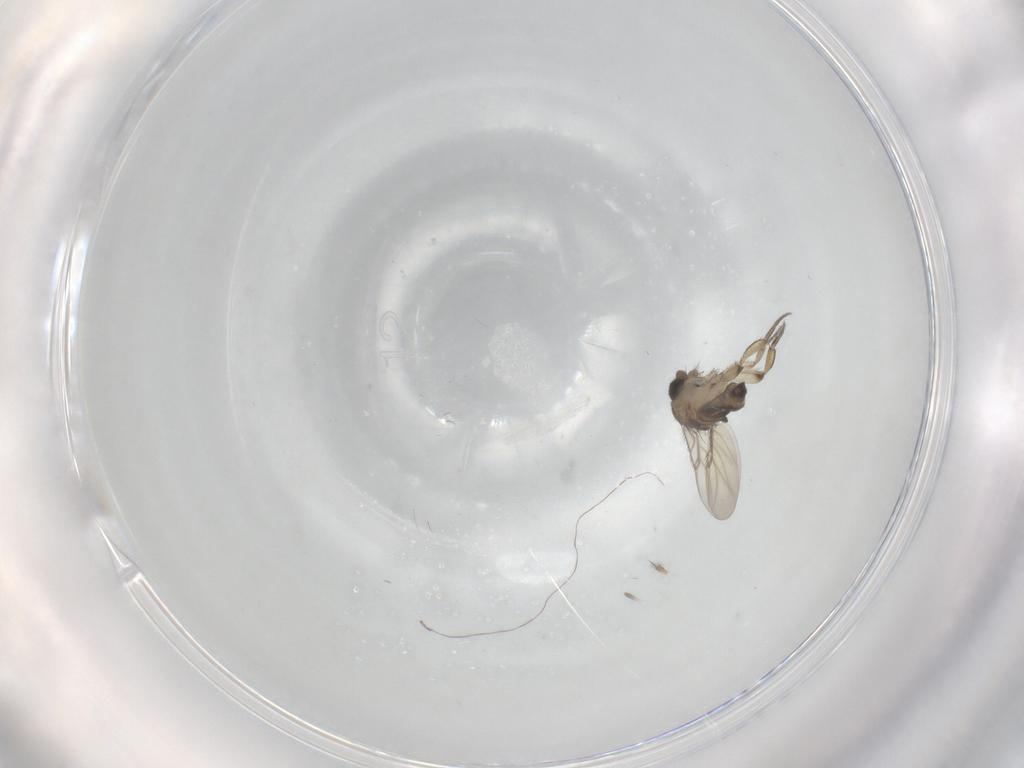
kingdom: Animalia
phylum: Arthropoda
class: Insecta
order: Diptera
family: Phoridae
